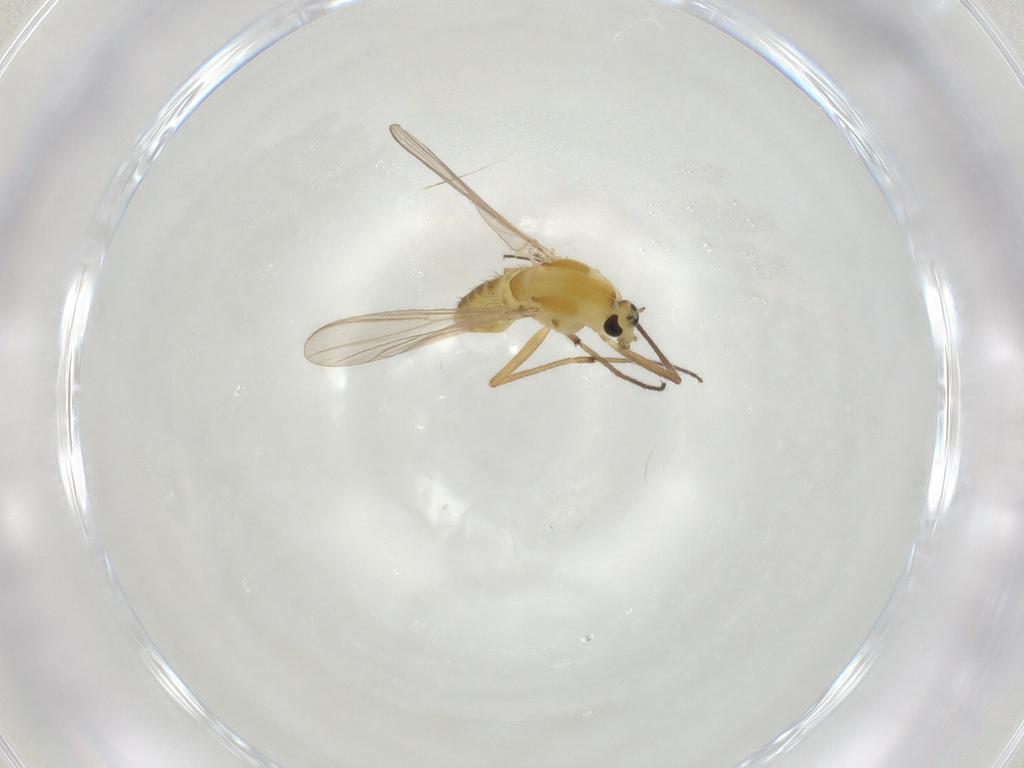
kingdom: Animalia
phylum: Arthropoda
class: Insecta
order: Diptera
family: Chironomidae
